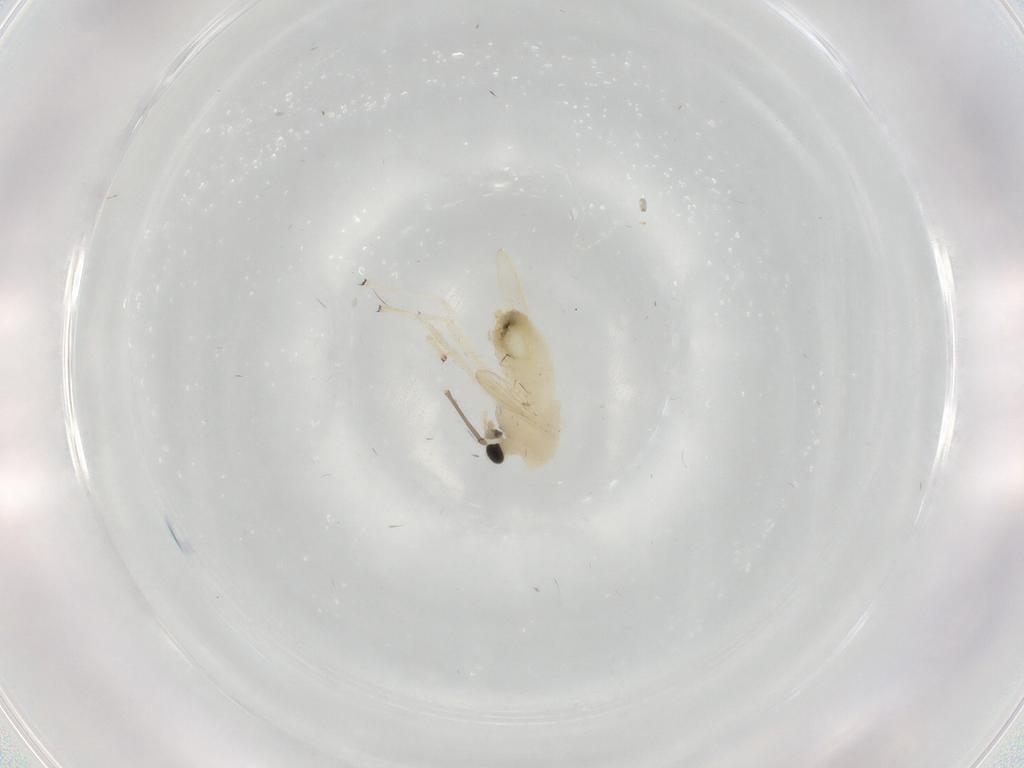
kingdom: Animalia
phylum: Arthropoda
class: Insecta
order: Diptera
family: Chironomidae
